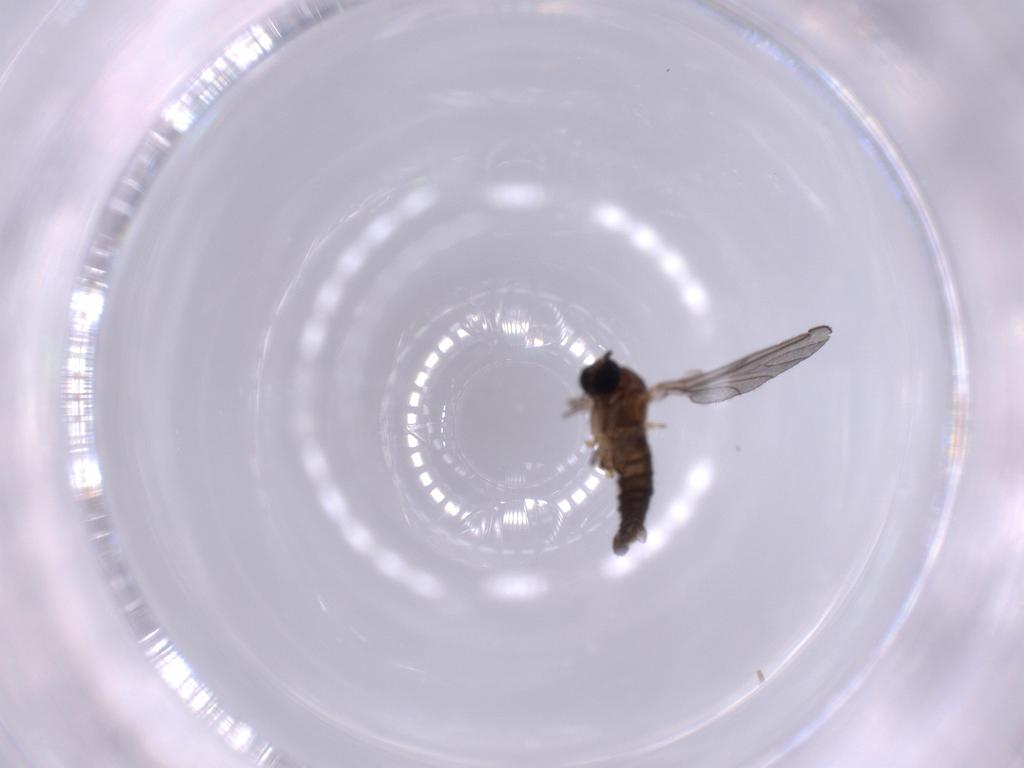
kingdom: Animalia
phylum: Arthropoda
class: Insecta
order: Diptera
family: Sciaridae
